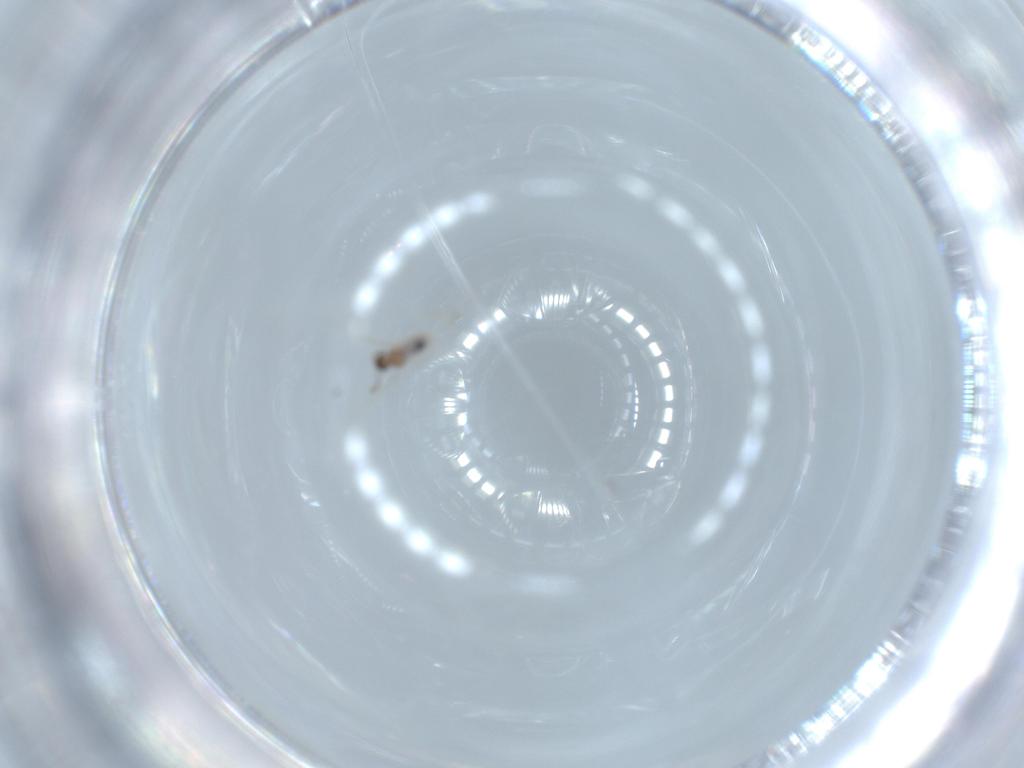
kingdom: Animalia
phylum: Arthropoda
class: Insecta
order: Diptera
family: Cecidomyiidae
